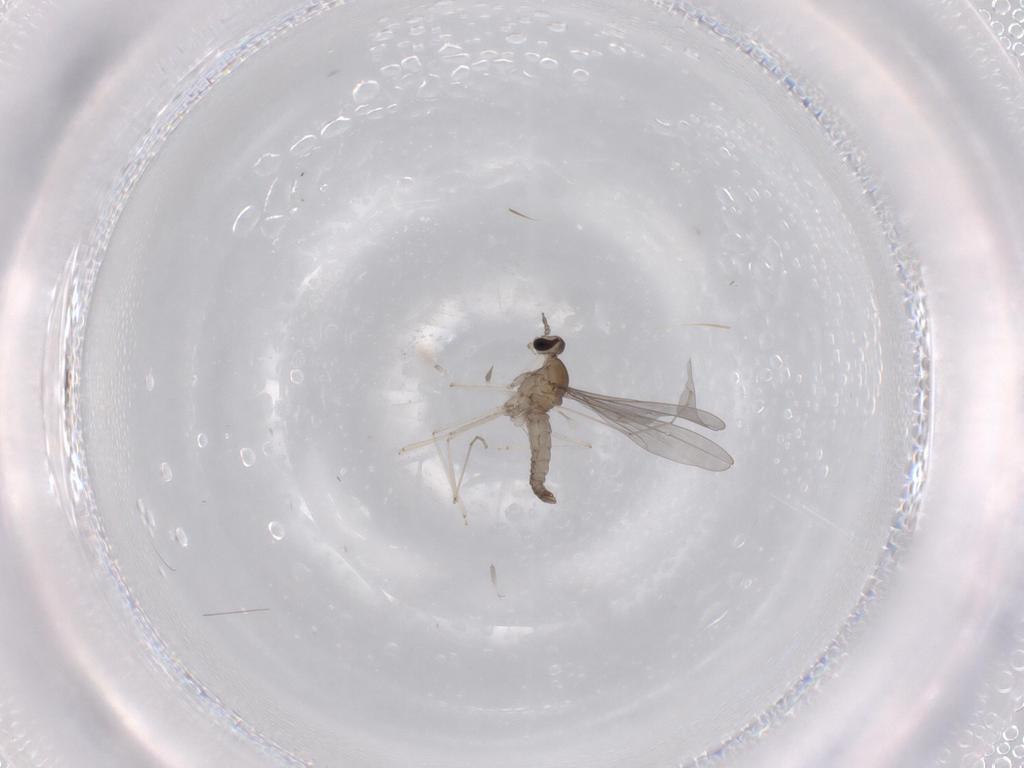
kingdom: Animalia
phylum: Arthropoda
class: Insecta
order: Diptera
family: Cecidomyiidae
